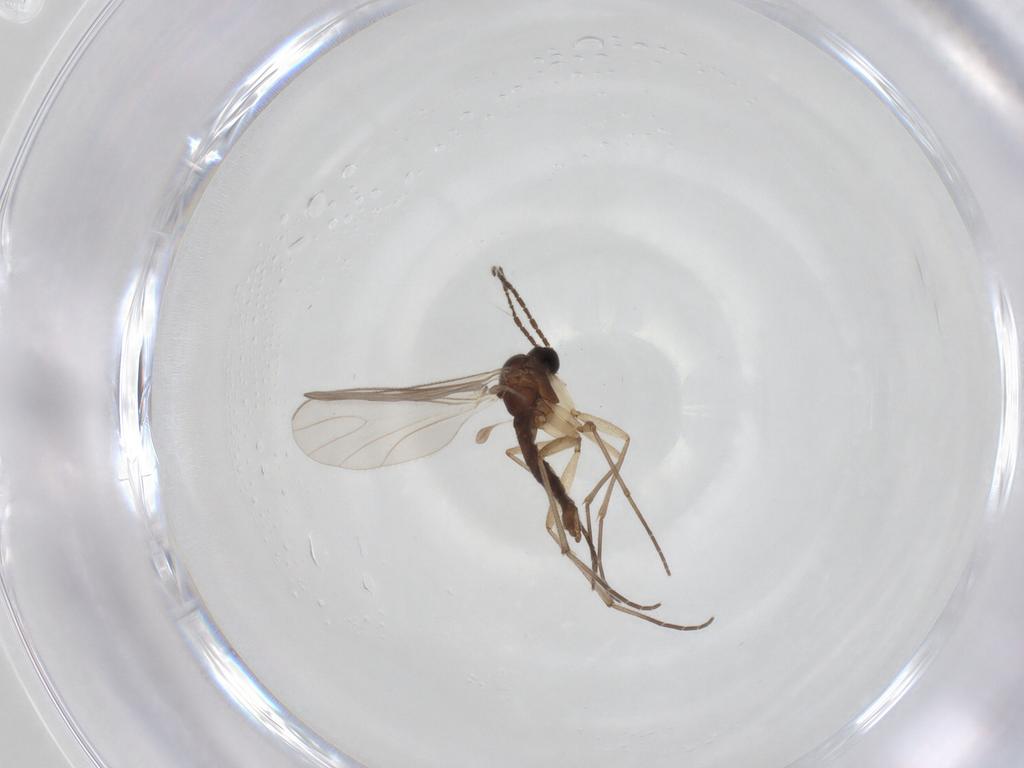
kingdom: Animalia
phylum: Arthropoda
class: Insecta
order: Diptera
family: Sciaridae
